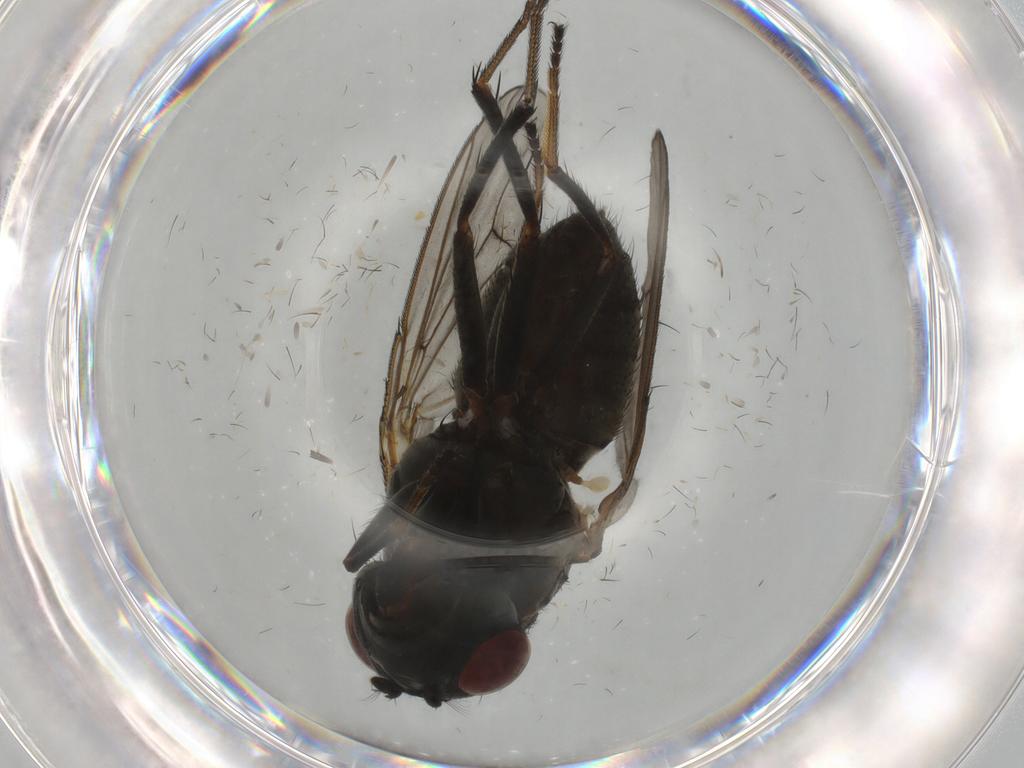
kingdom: Animalia
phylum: Arthropoda
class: Insecta
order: Diptera
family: Ephydridae
